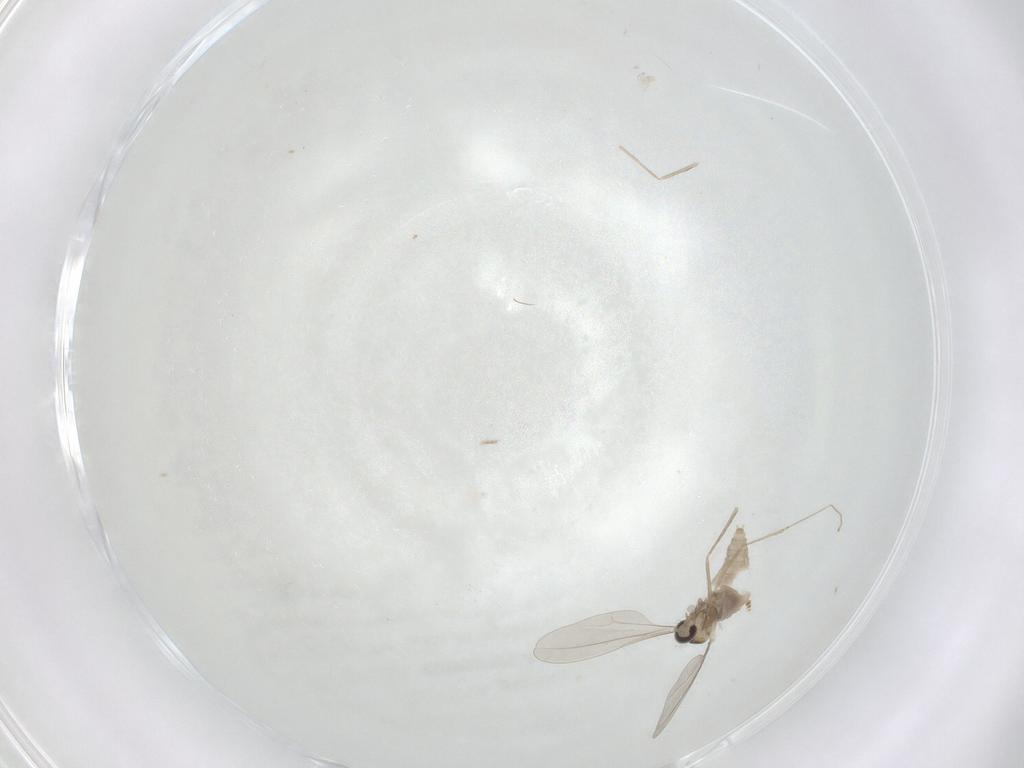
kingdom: Animalia
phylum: Arthropoda
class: Insecta
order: Diptera
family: Cecidomyiidae
